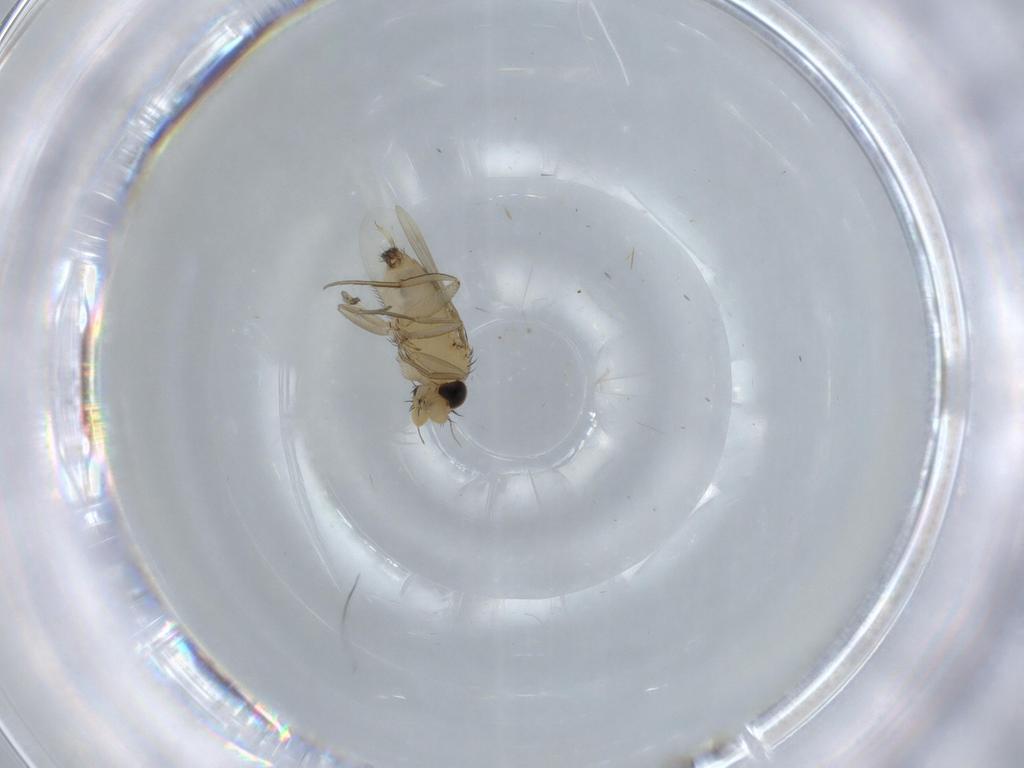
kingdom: Animalia
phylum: Arthropoda
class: Insecta
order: Diptera
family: Phoridae
